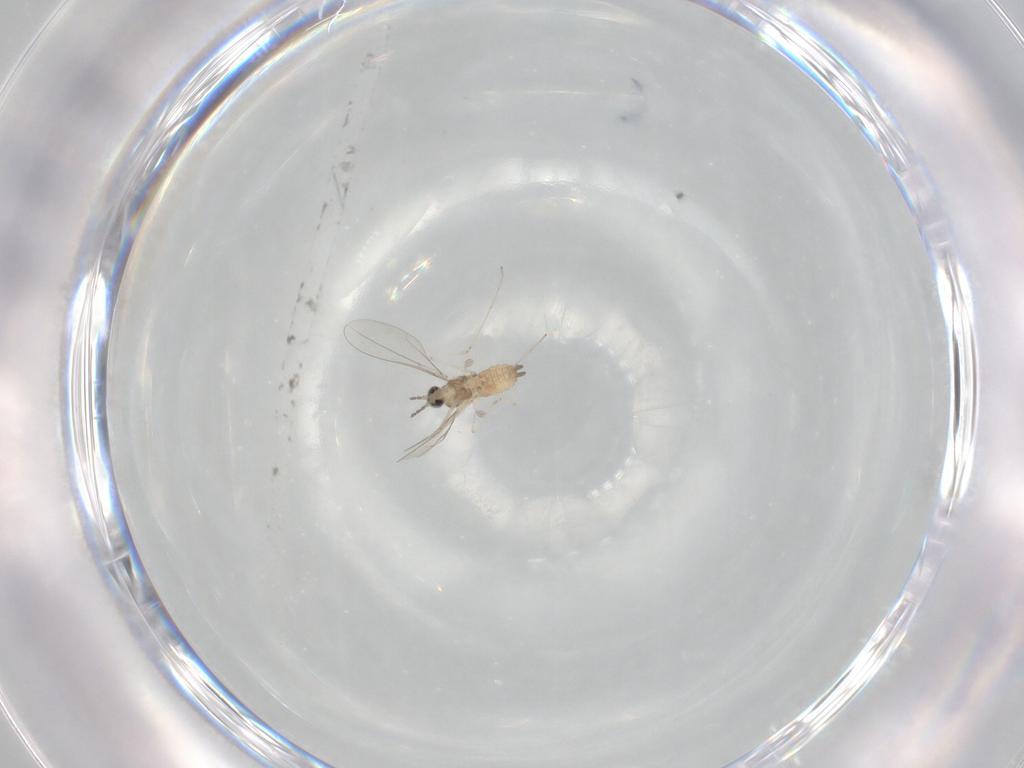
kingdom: Animalia
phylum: Arthropoda
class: Insecta
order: Diptera
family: Cecidomyiidae
